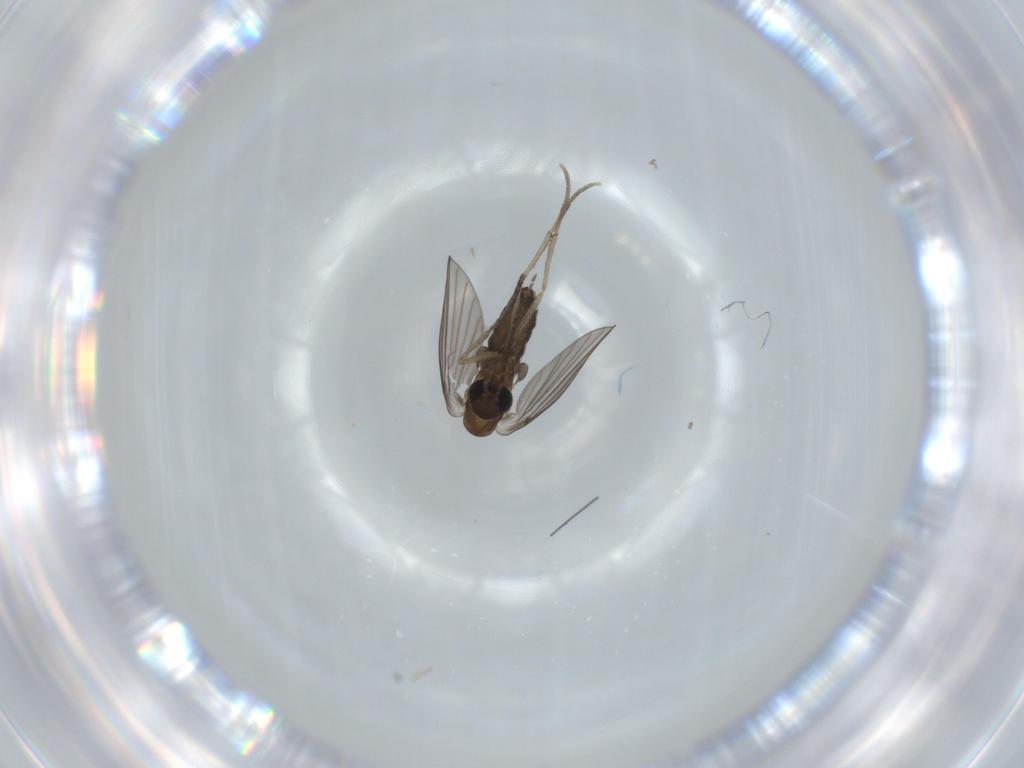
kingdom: Animalia
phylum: Arthropoda
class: Insecta
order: Diptera
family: Psychodidae
